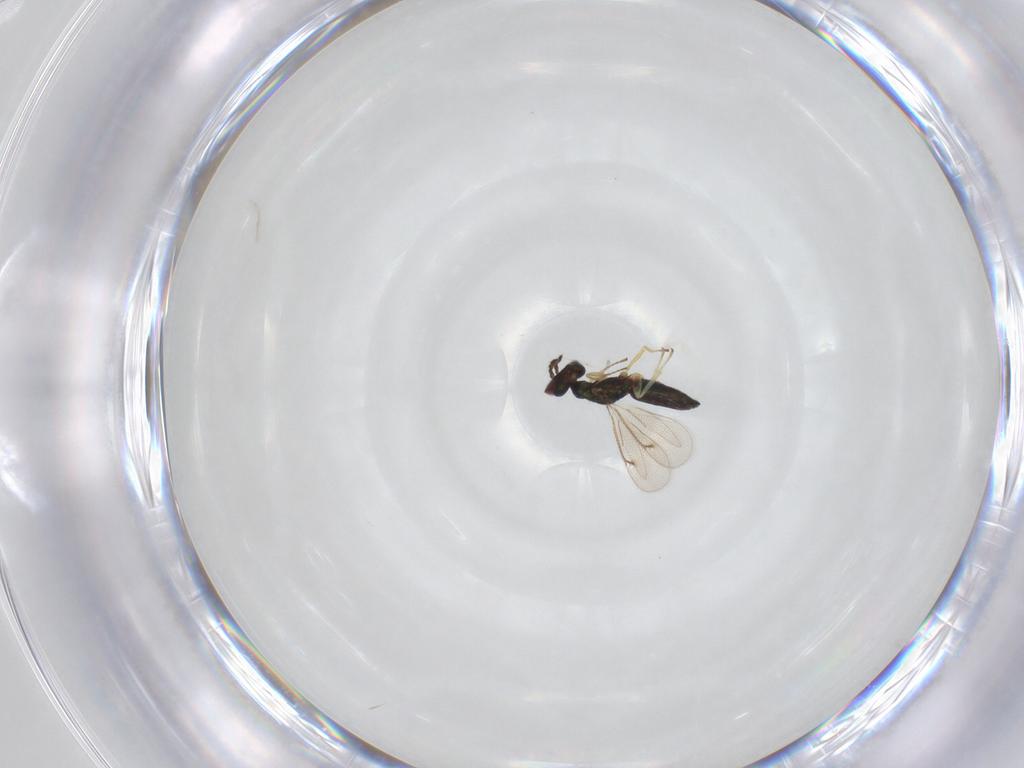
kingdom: Animalia
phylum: Arthropoda
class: Insecta
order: Hymenoptera
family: Eulophidae
